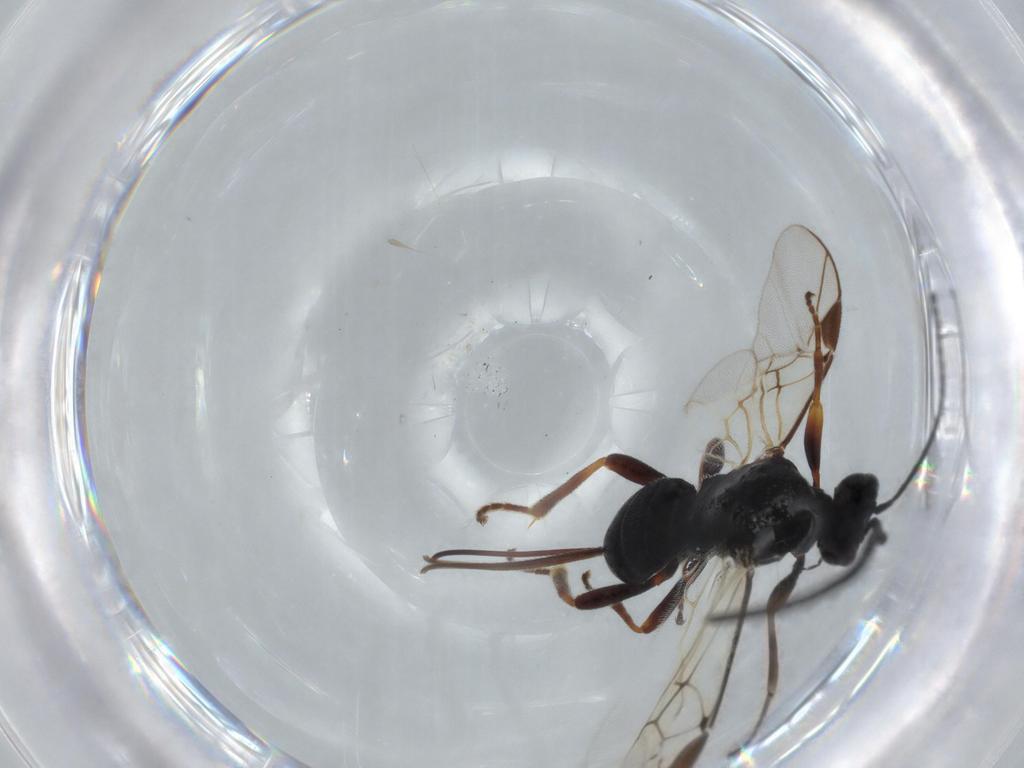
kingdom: Animalia
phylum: Arthropoda
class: Insecta
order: Hymenoptera
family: Braconidae
